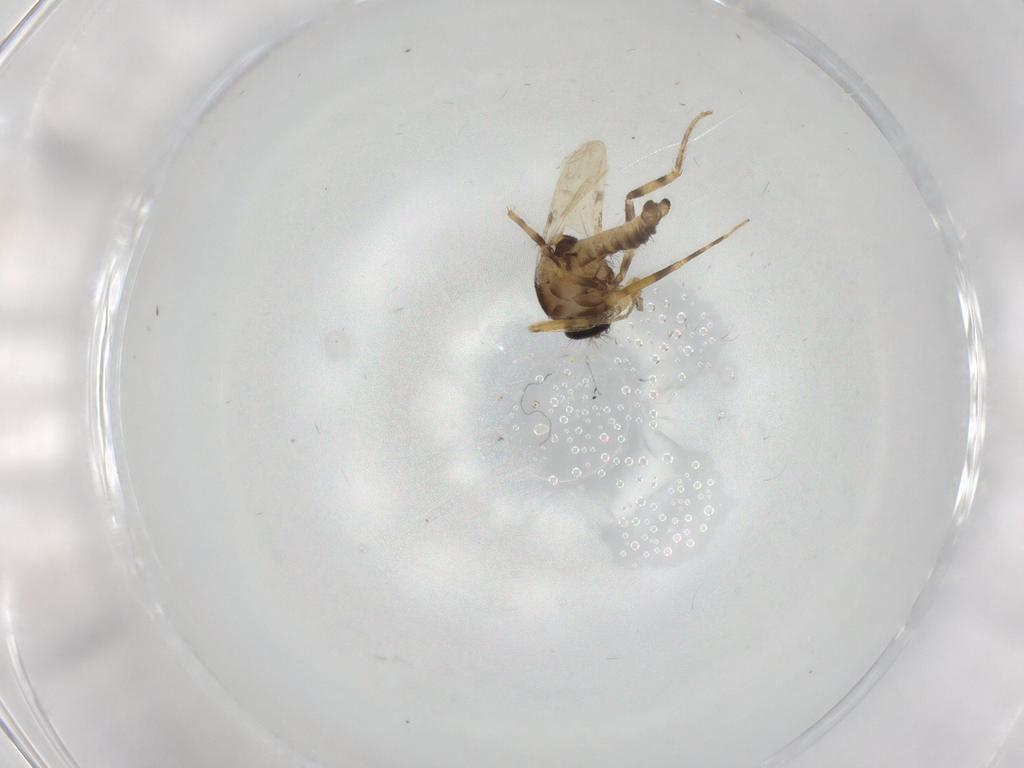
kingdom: Animalia
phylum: Arthropoda
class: Insecta
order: Diptera
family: Ceratopogonidae
